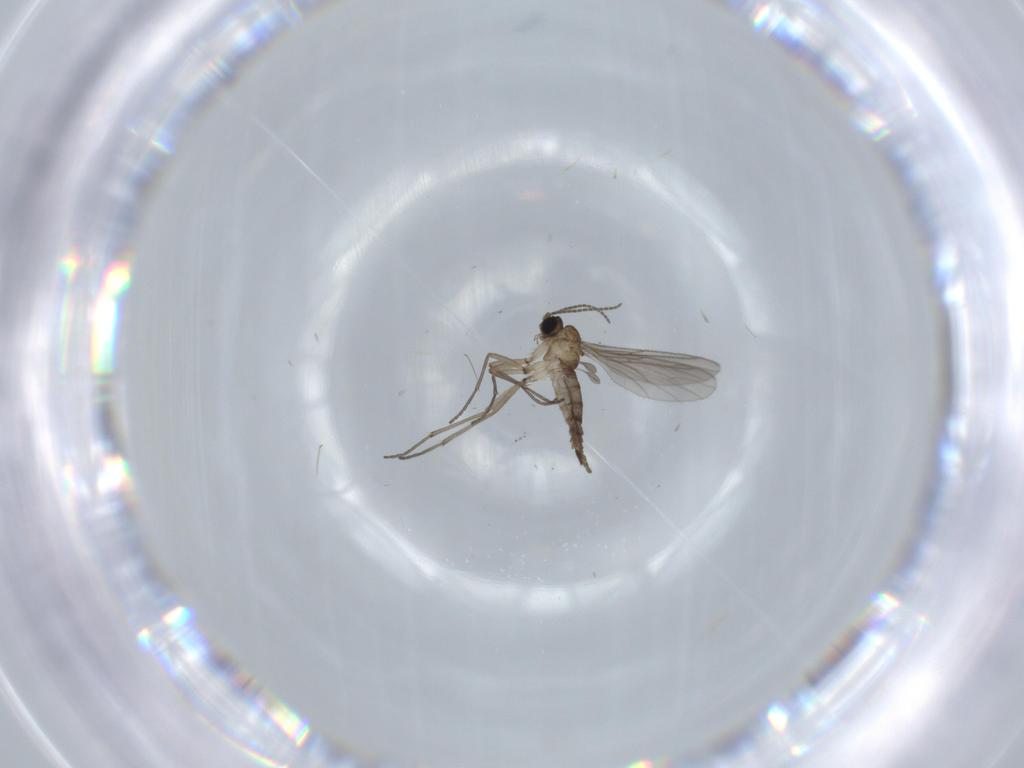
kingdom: Animalia
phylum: Arthropoda
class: Insecta
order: Diptera
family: Sciaridae
